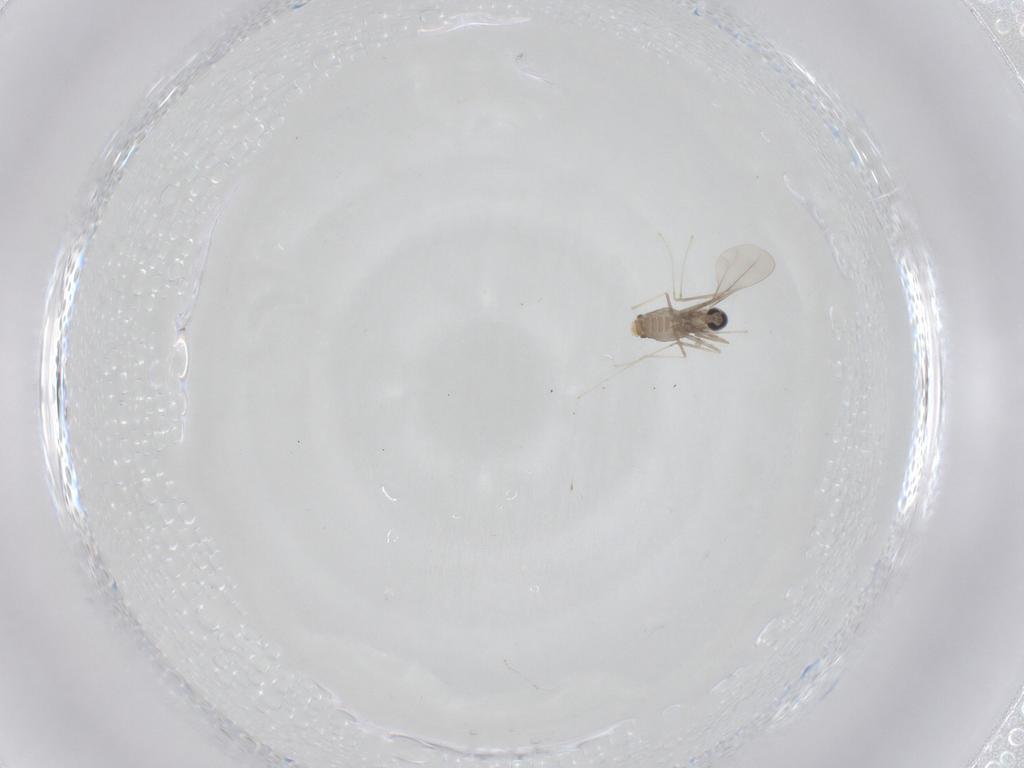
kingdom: Animalia
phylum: Arthropoda
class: Insecta
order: Diptera
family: Cecidomyiidae
